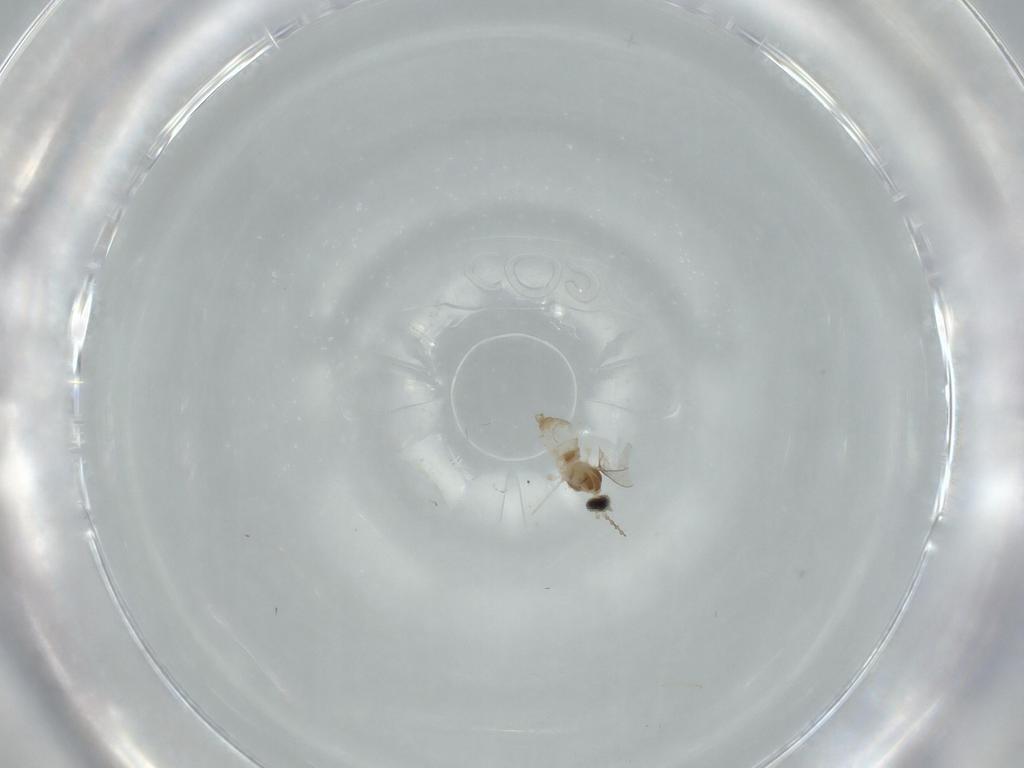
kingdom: Animalia
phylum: Arthropoda
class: Insecta
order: Diptera
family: Cecidomyiidae
